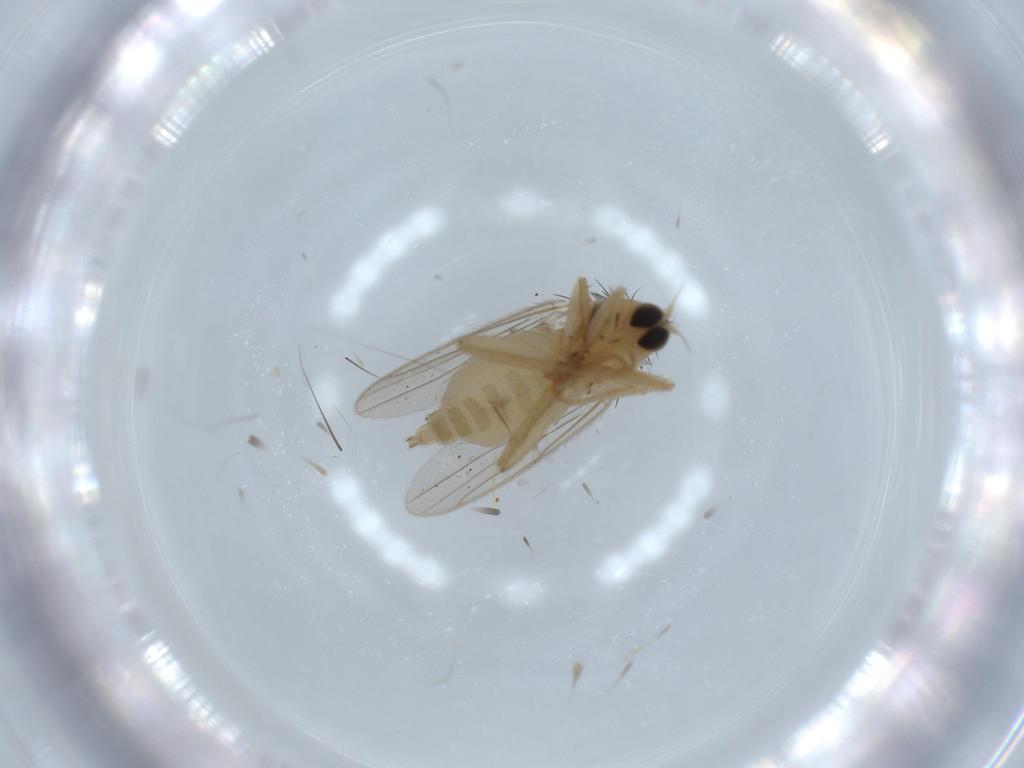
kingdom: Animalia
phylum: Arthropoda
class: Insecta
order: Diptera
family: Hybotidae
